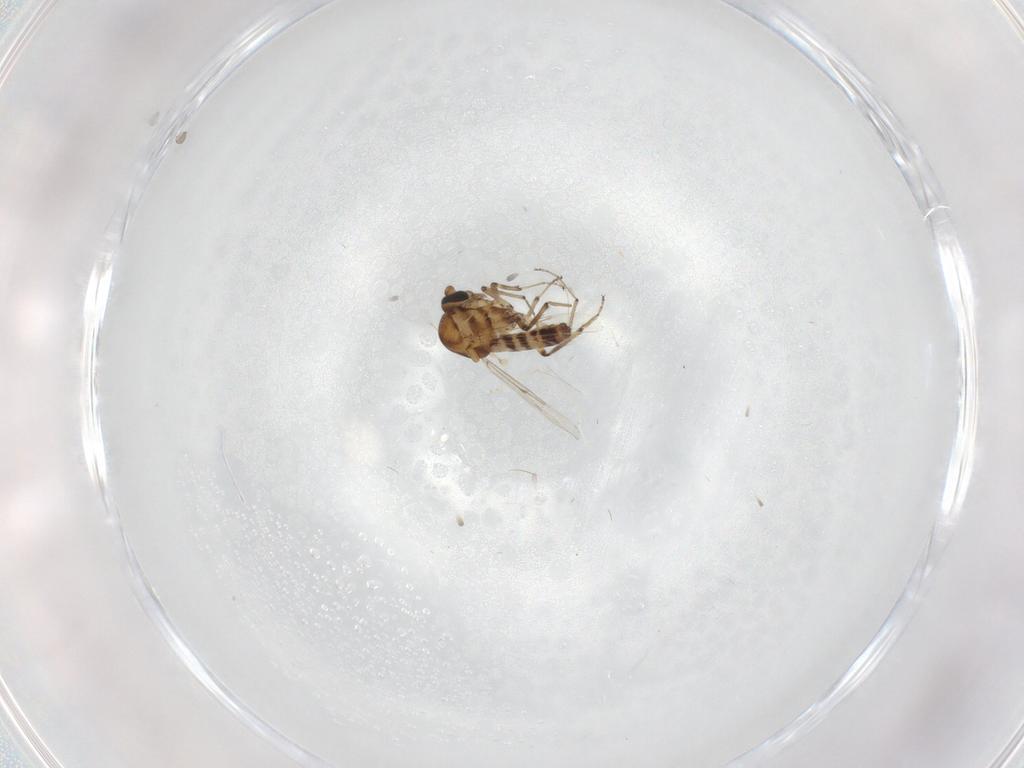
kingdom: Animalia
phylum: Arthropoda
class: Insecta
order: Diptera
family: Ceratopogonidae
